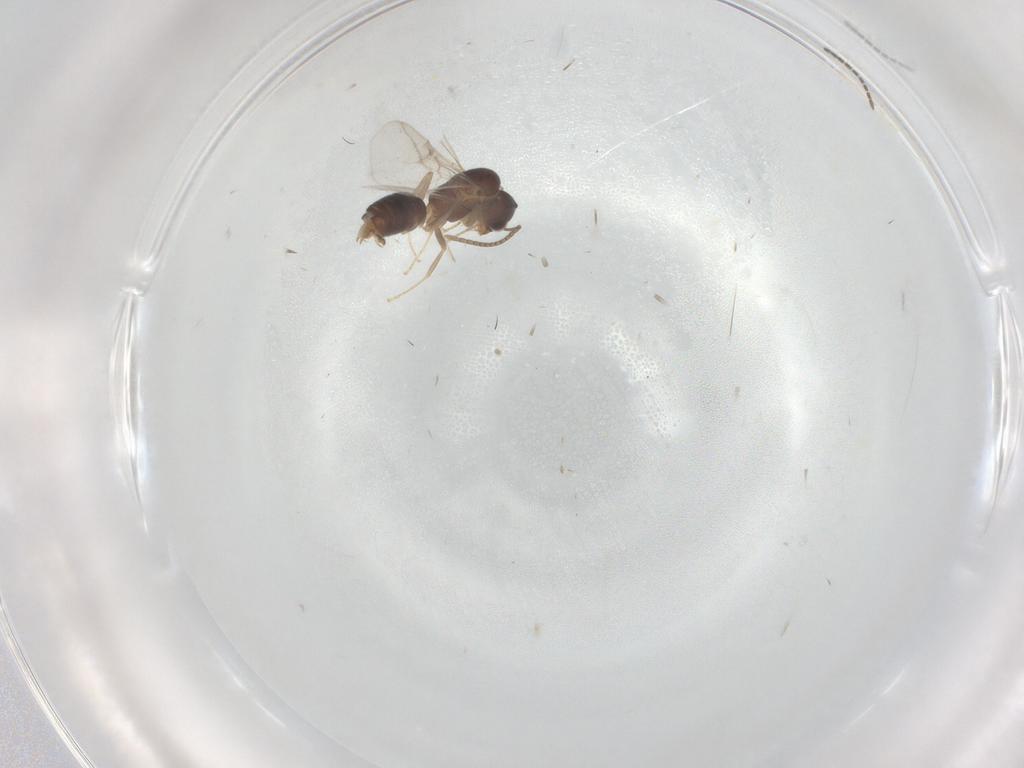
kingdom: Animalia
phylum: Arthropoda
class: Insecta
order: Hymenoptera
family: Formicidae
